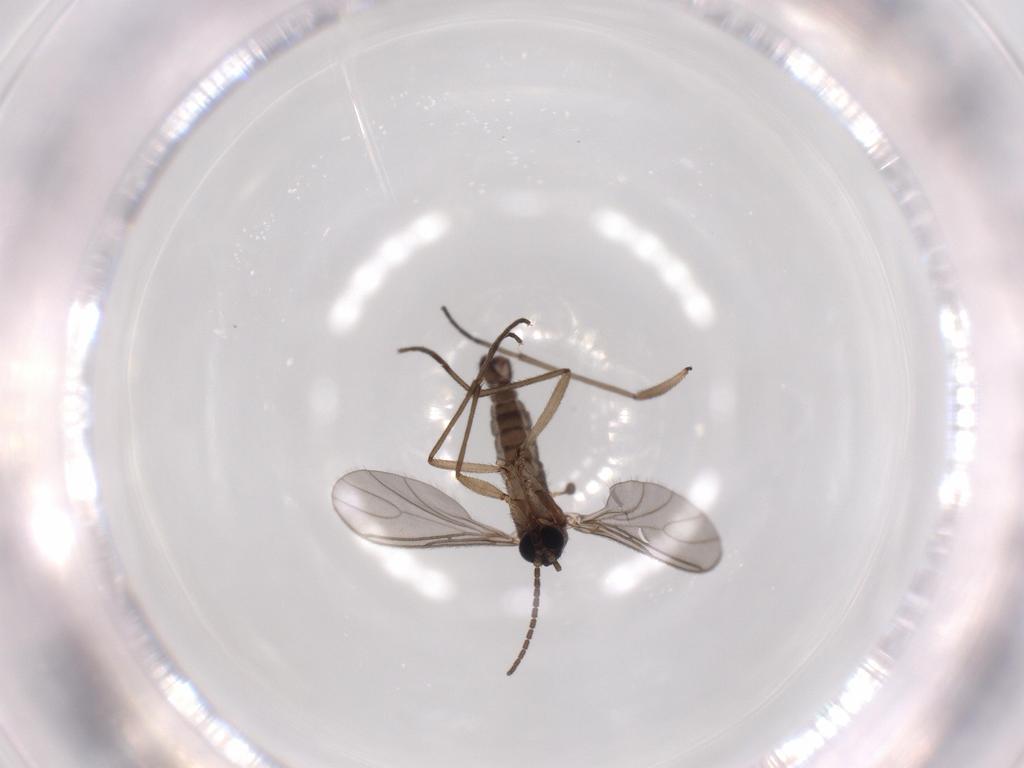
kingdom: Animalia
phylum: Arthropoda
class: Insecta
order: Diptera
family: Sciaridae
